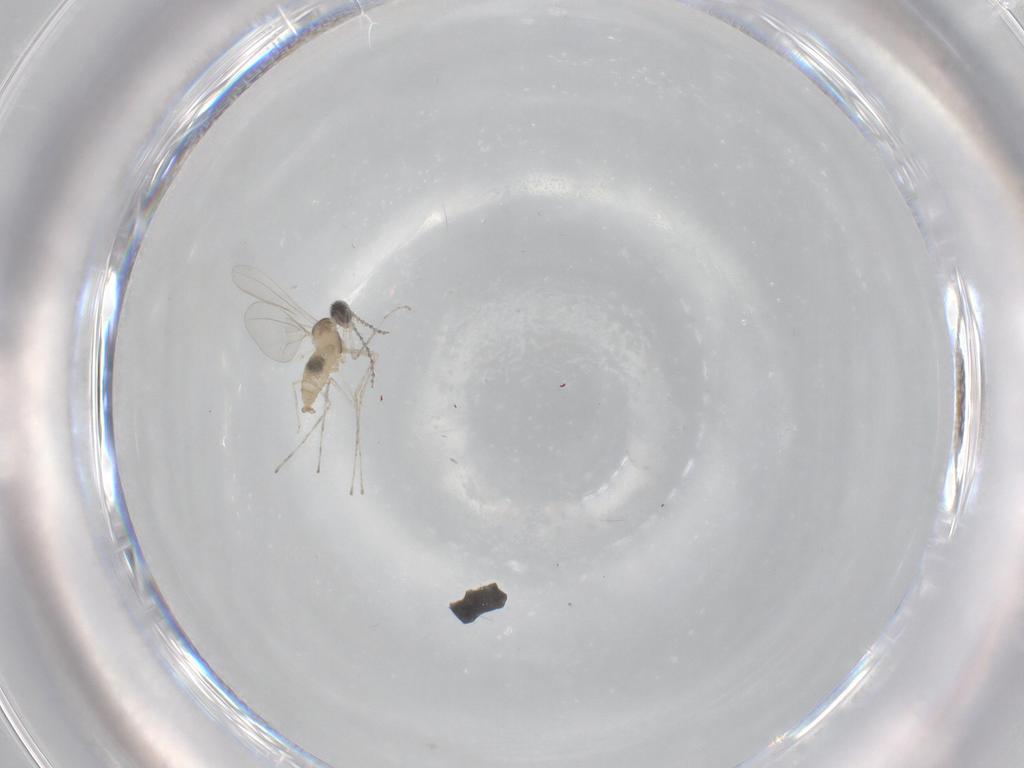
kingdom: Animalia
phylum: Arthropoda
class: Insecta
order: Diptera
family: Cecidomyiidae
